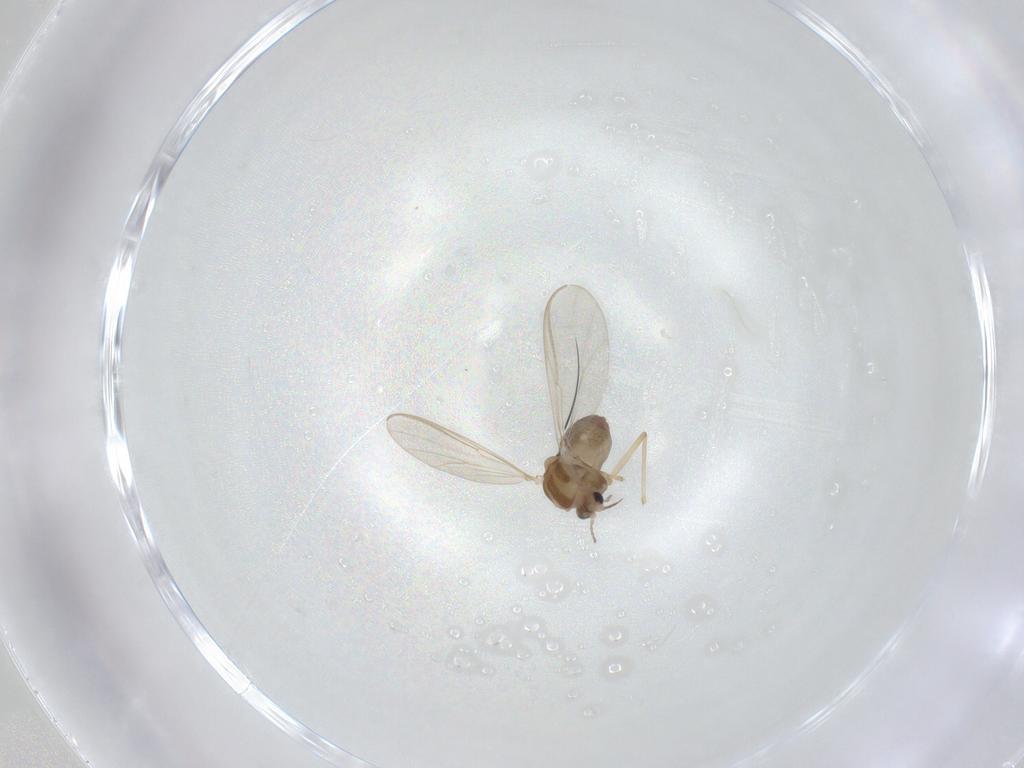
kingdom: Animalia
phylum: Arthropoda
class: Insecta
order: Diptera
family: Chironomidae
